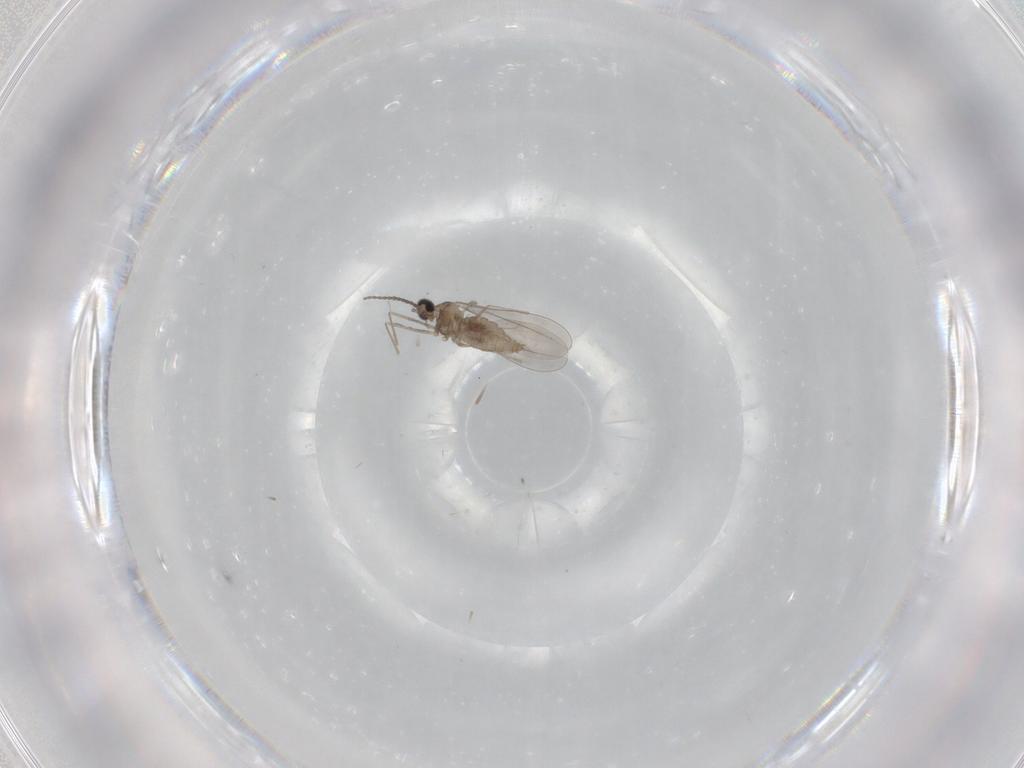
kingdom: Animalia
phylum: Arthropoda
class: Insecta
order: Diptera
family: Cecidomyiidae
